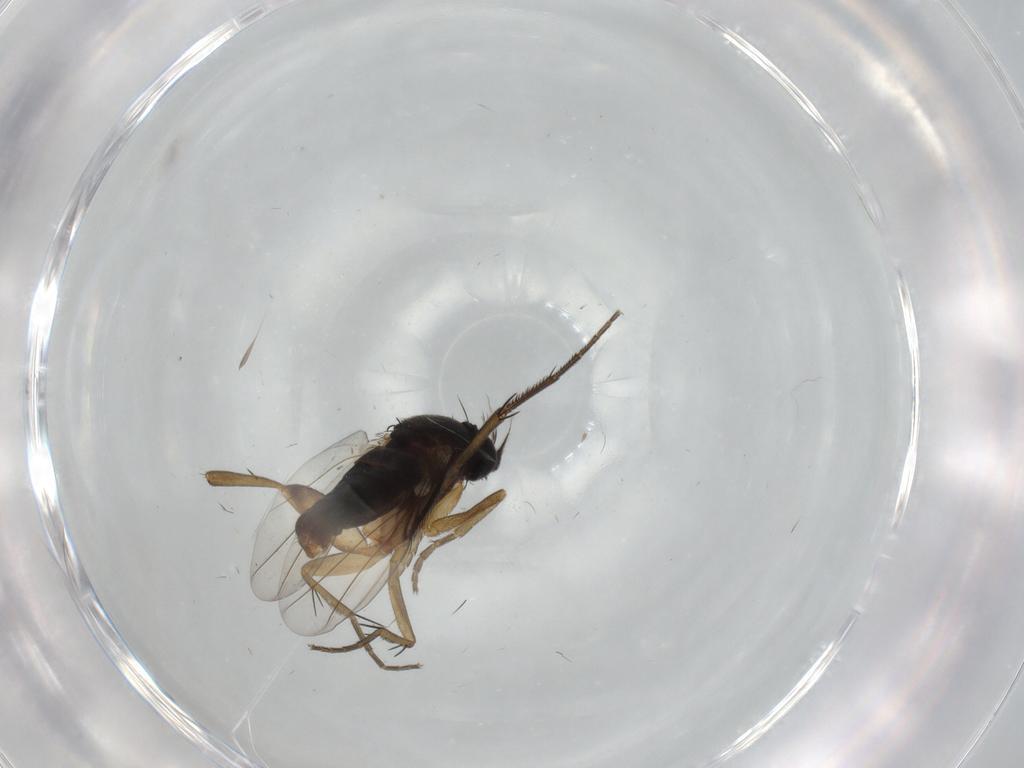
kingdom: Animalia
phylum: Arthropoda
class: Insecta
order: Diptera
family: Phoridae
